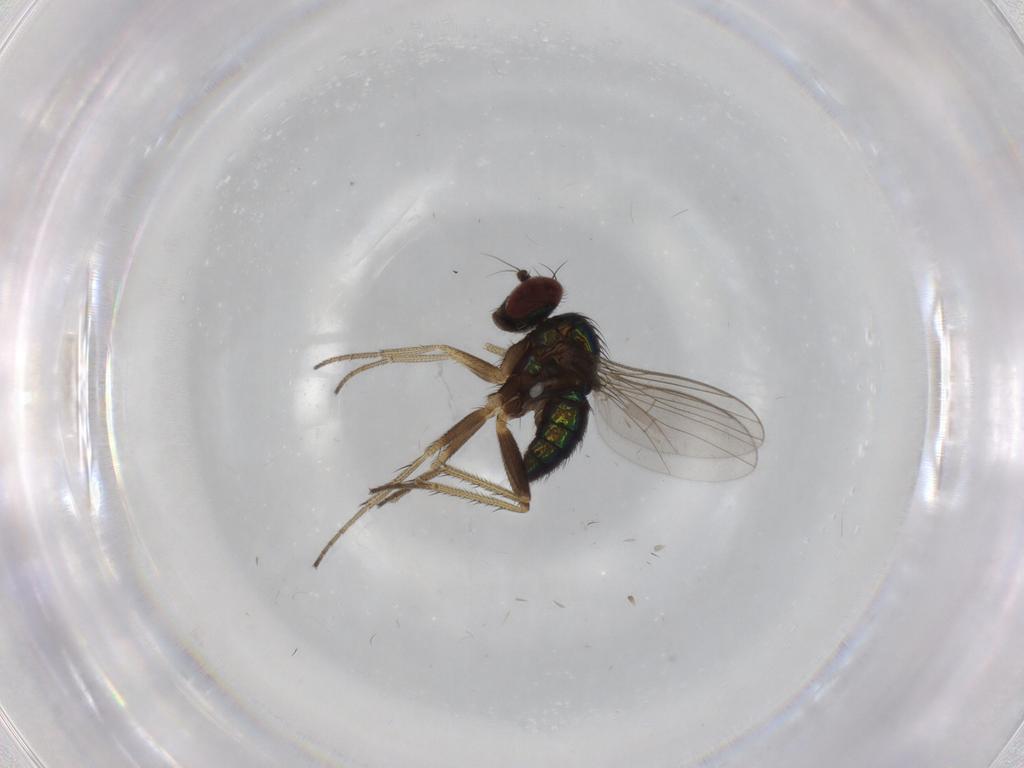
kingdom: Animalia
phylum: Arthropoda
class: Insecta
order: Diptera
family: Dolichopodidae
